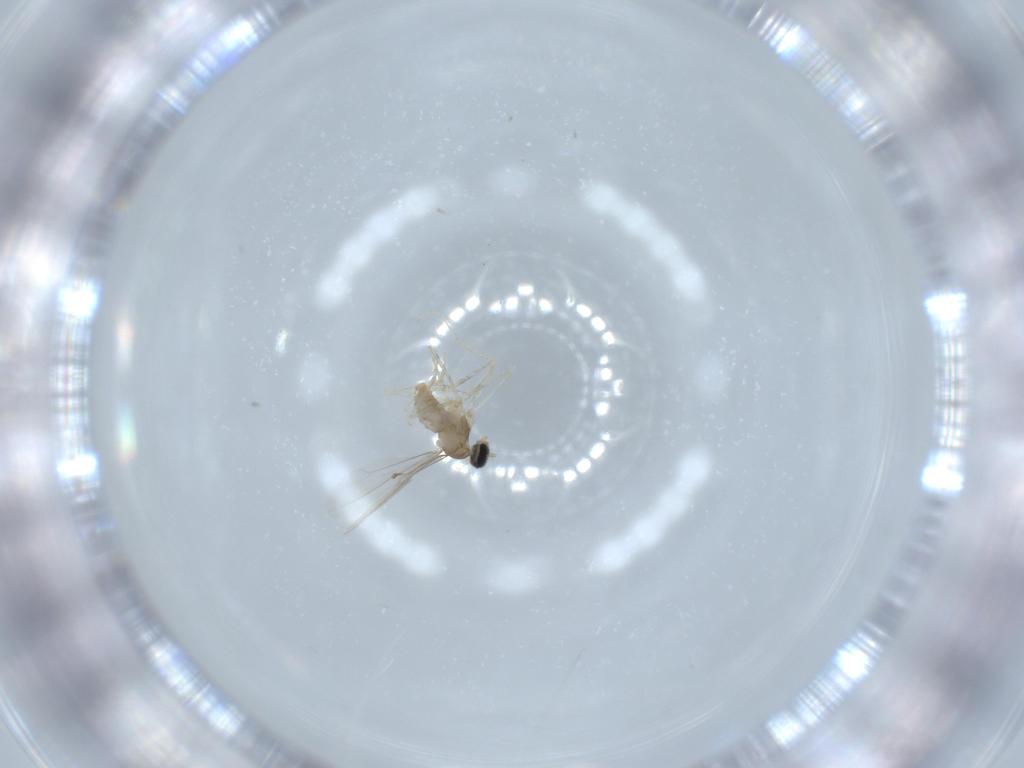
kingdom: Animalia
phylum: Arthropoda
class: Insecta
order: Diptera
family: Cecidomyiidae
